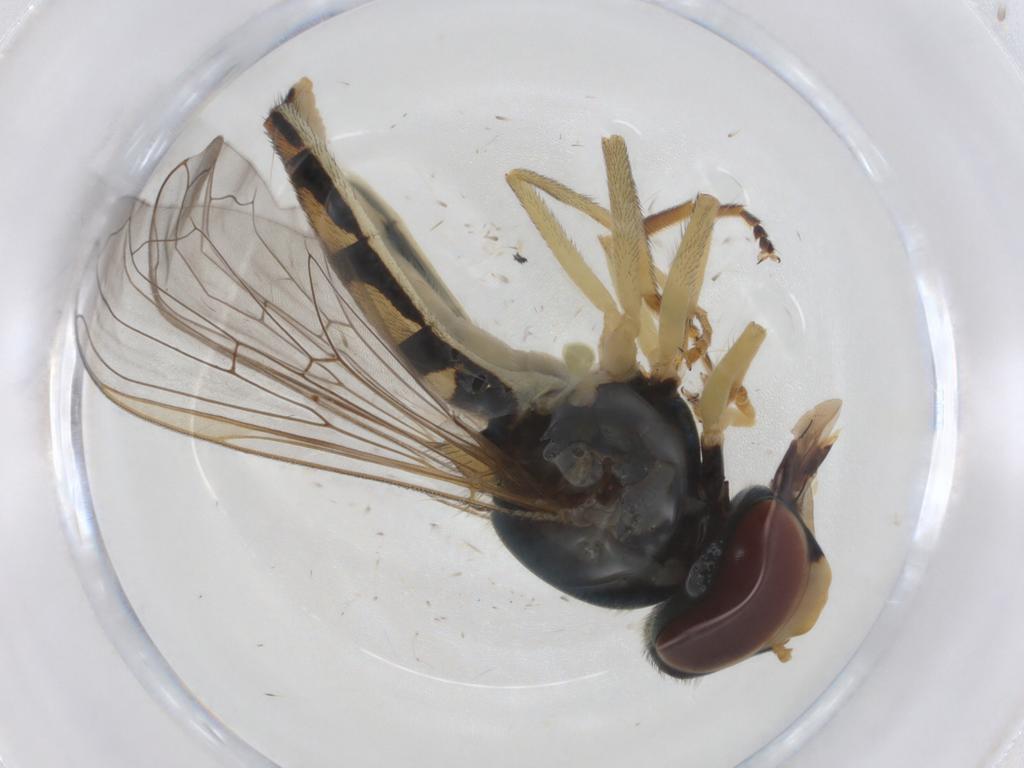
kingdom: Animalia
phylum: Arthropoda
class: Insecta
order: Diptera
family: Syrphidae
